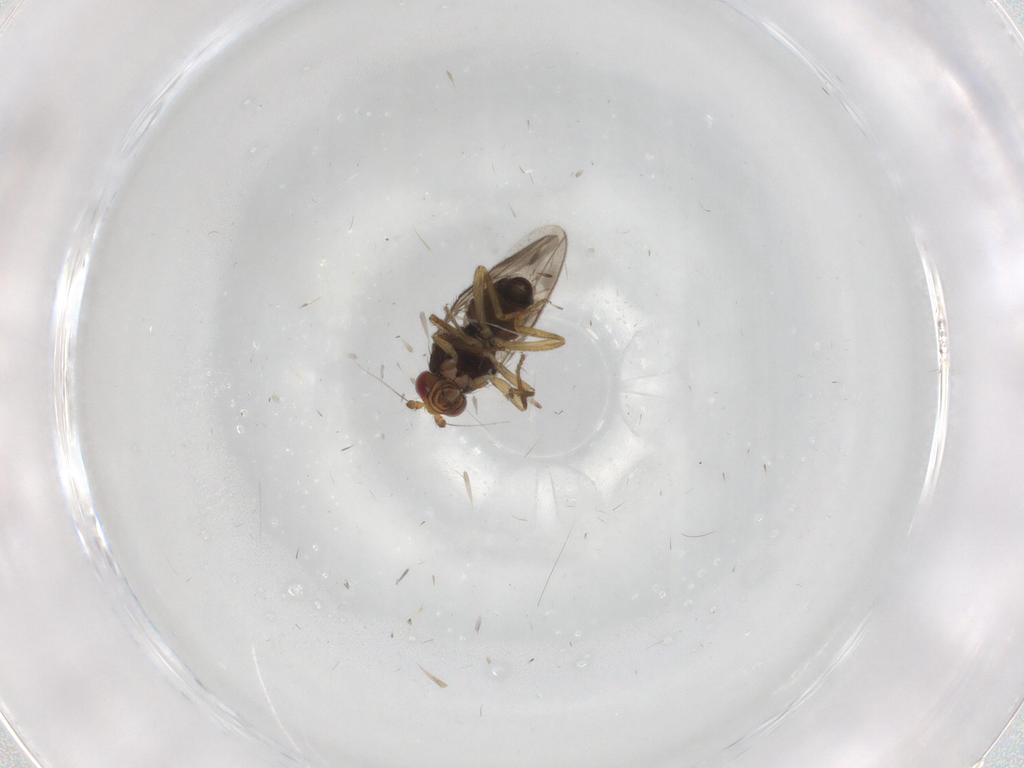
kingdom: Animalia
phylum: Arthropoda
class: Insecta
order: Diptera
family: Sphaeroceridae
